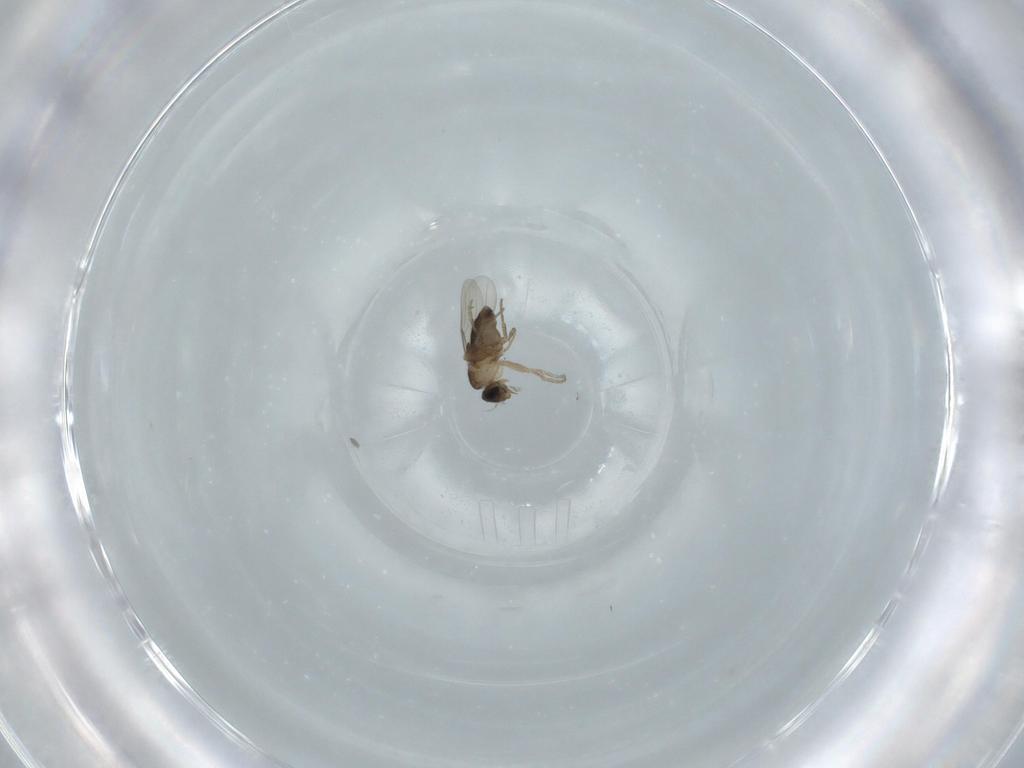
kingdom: Animalia
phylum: Arthropoda
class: Insecta
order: Diptera
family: Phoridae
